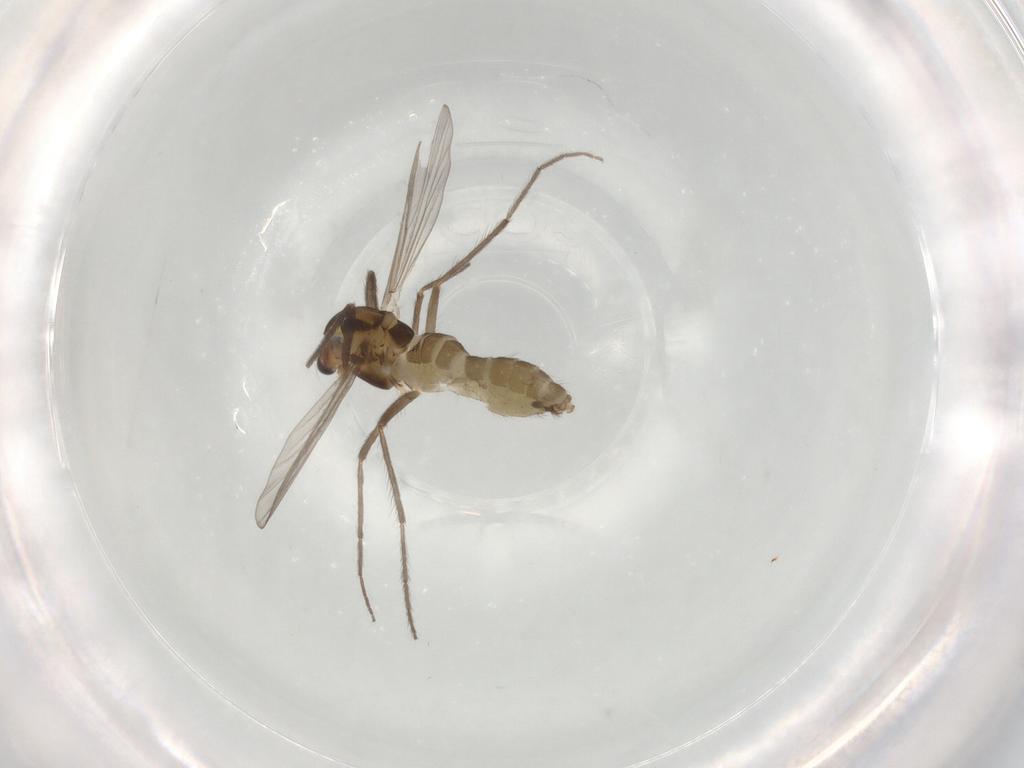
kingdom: Animalia
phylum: Arthropoda
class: Insecta
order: Diptera
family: Chironomidae
